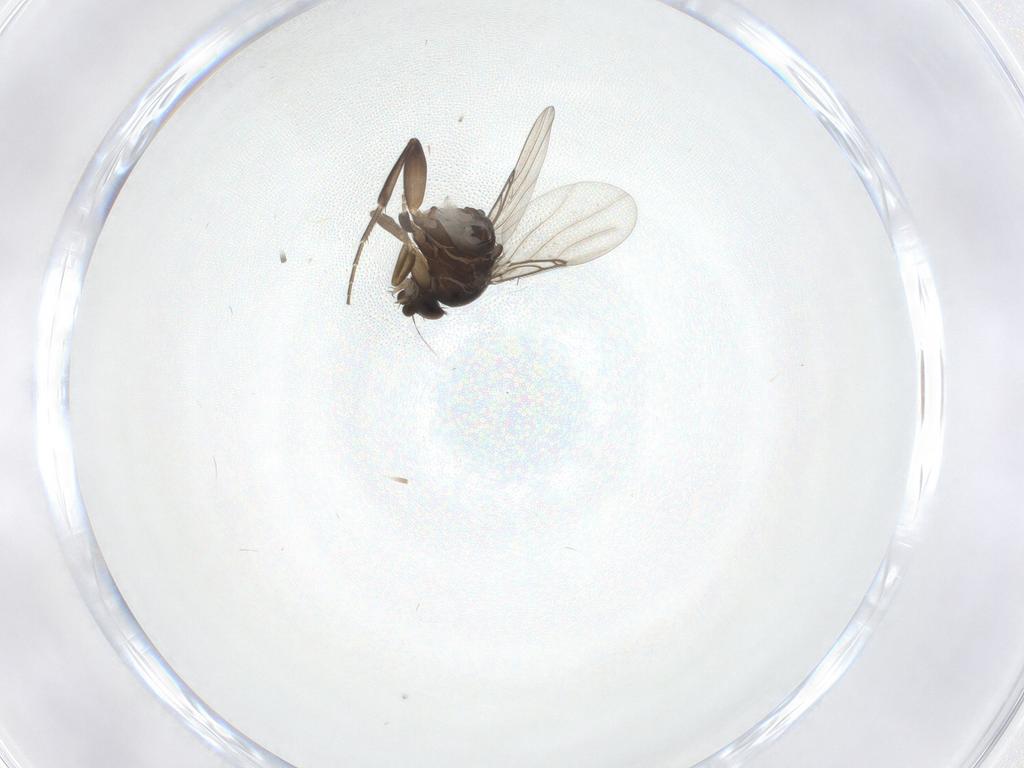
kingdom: Animalia
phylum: Arthropoda
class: Insecta
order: Diptera
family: Phoridae
